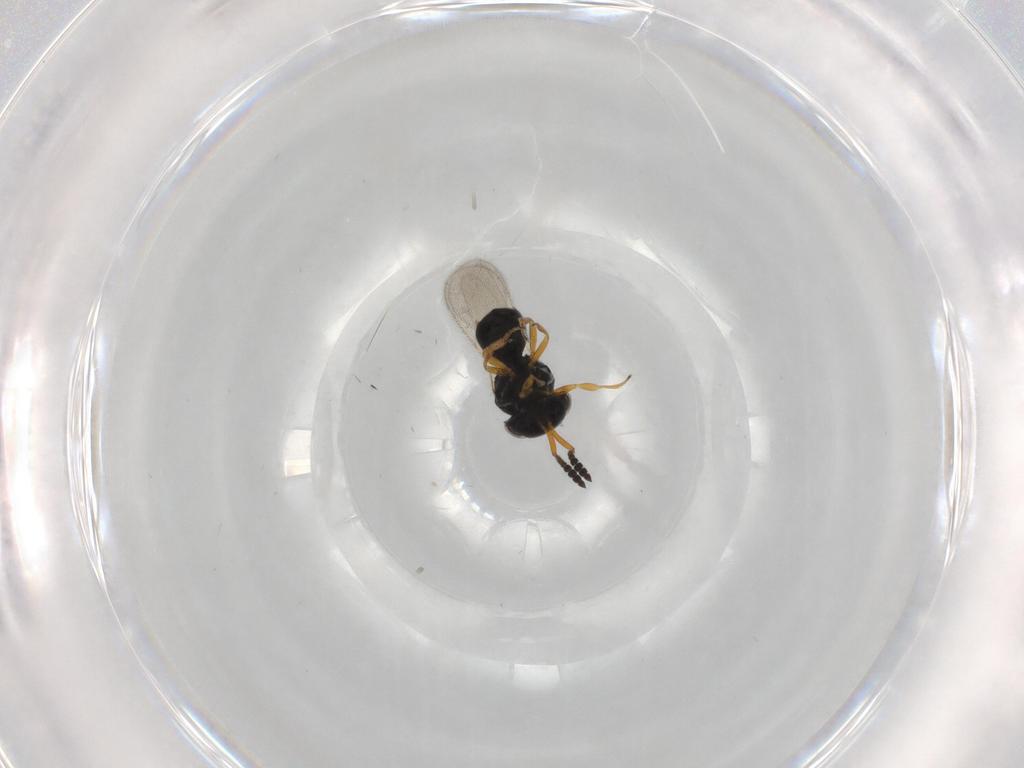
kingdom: Animalia
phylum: Arthropoda
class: Insecta
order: Hymenoptera
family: Scelionidae
